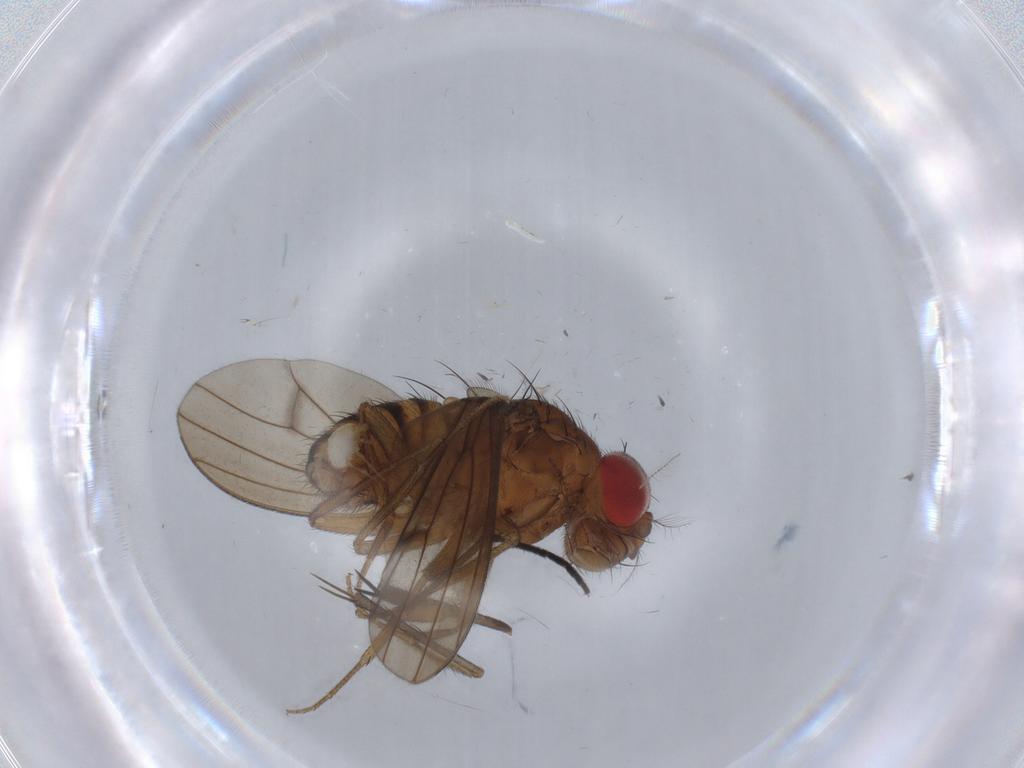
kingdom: Animalia
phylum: Arthropoda
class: Insecta
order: Diptera
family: Drosophilidae
